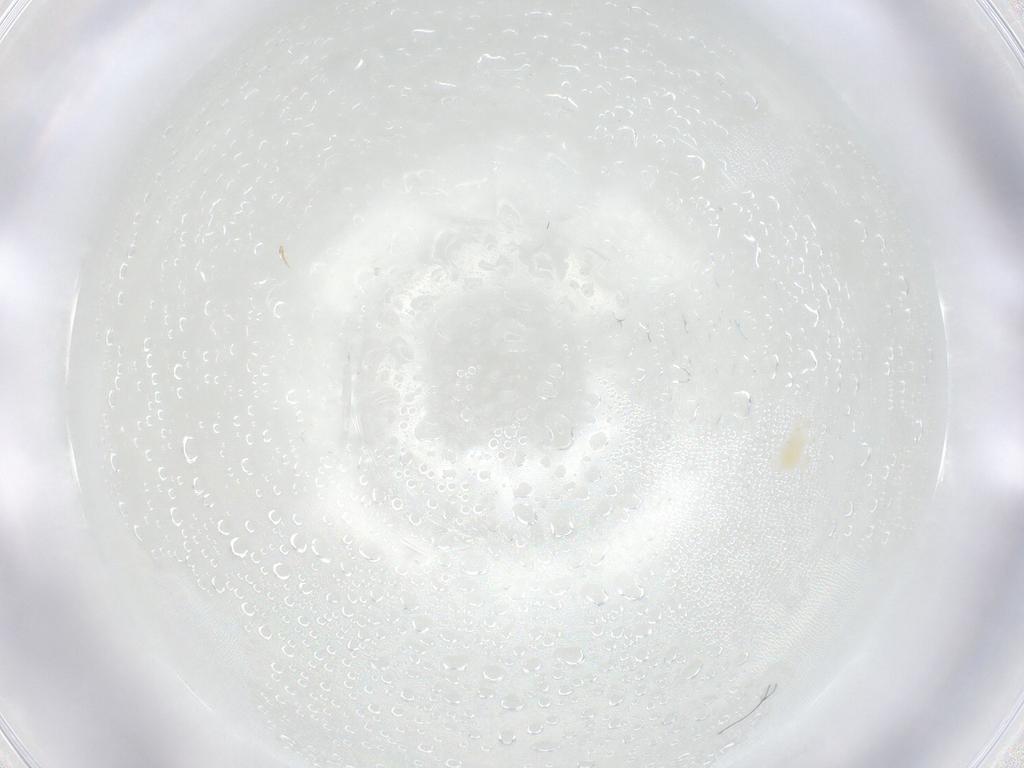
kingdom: Animalia
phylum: Arthropoda
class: Arachnida
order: Trombidiformes
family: Tetranychidae
